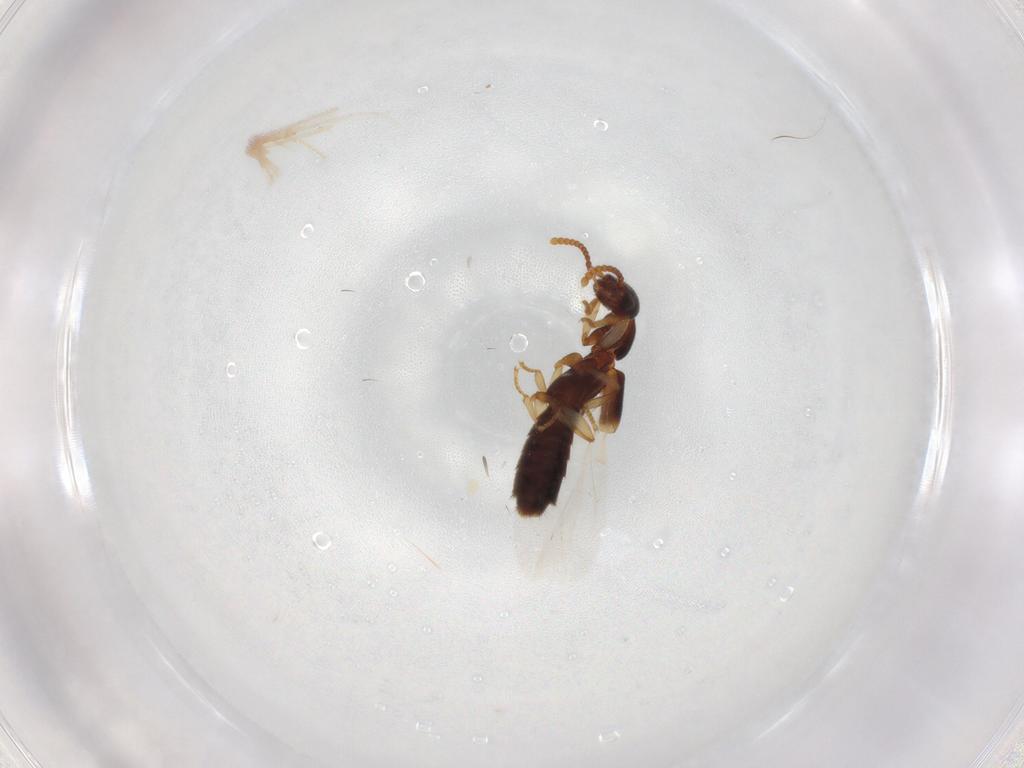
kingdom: Animalia
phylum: Arthropoda
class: Insecta
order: Coleoptera
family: Staphylinidae
